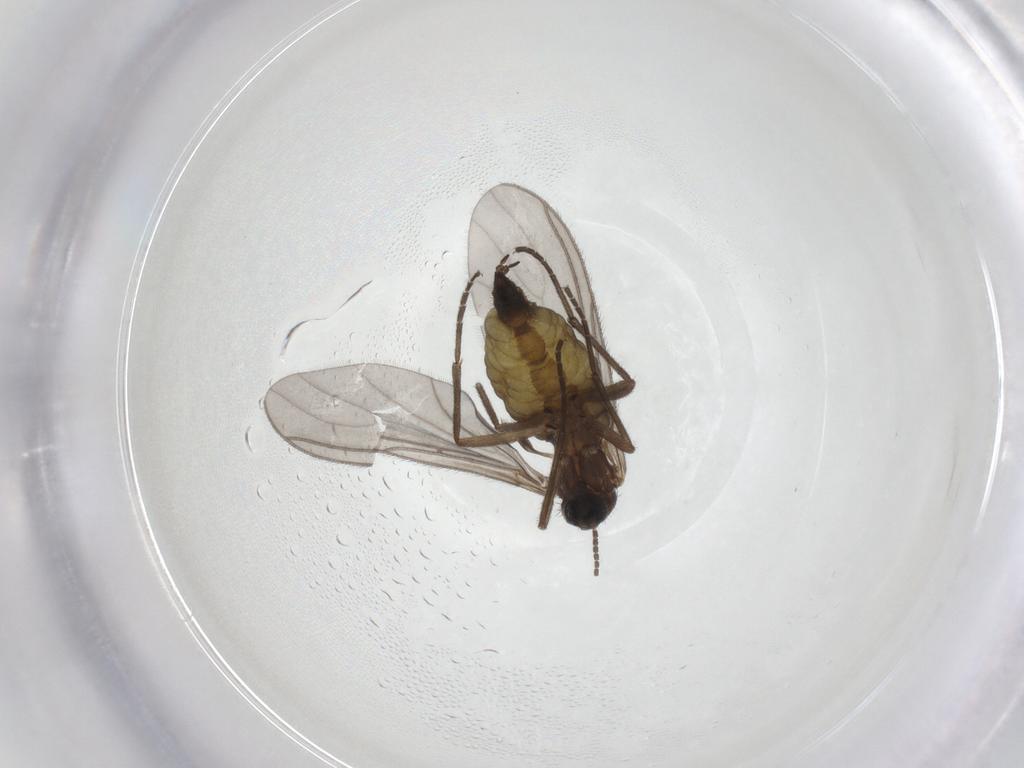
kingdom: Animalia
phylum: Arthropoda
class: Insecta
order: Diptera
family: Sciaridae
